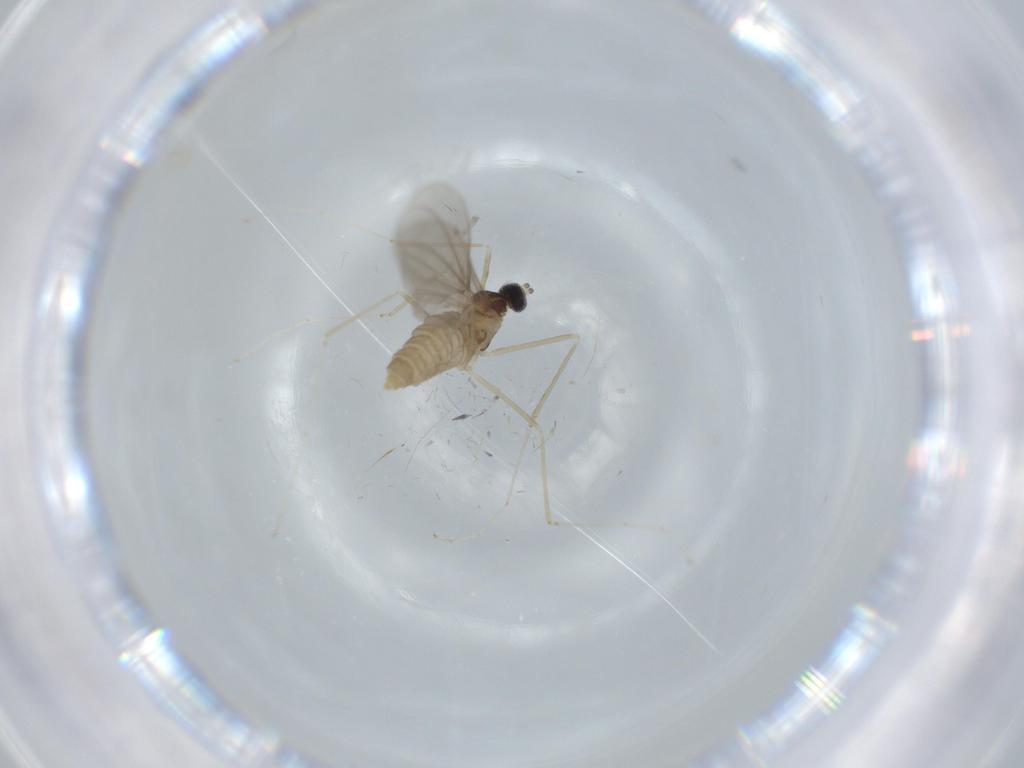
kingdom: Animalia
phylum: Arthropoda
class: Insecta
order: Diptera
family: Cecidomyiidae
